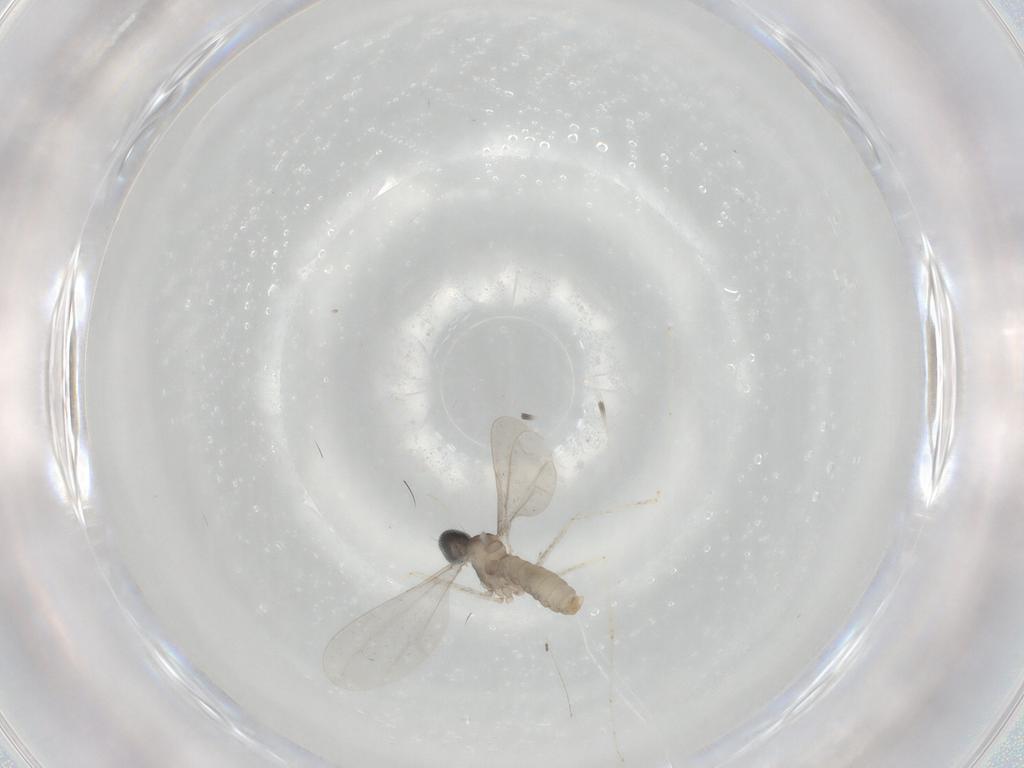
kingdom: Animalia
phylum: Arthropoda
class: Insecta
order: Diptera
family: Cecidomyiidae
